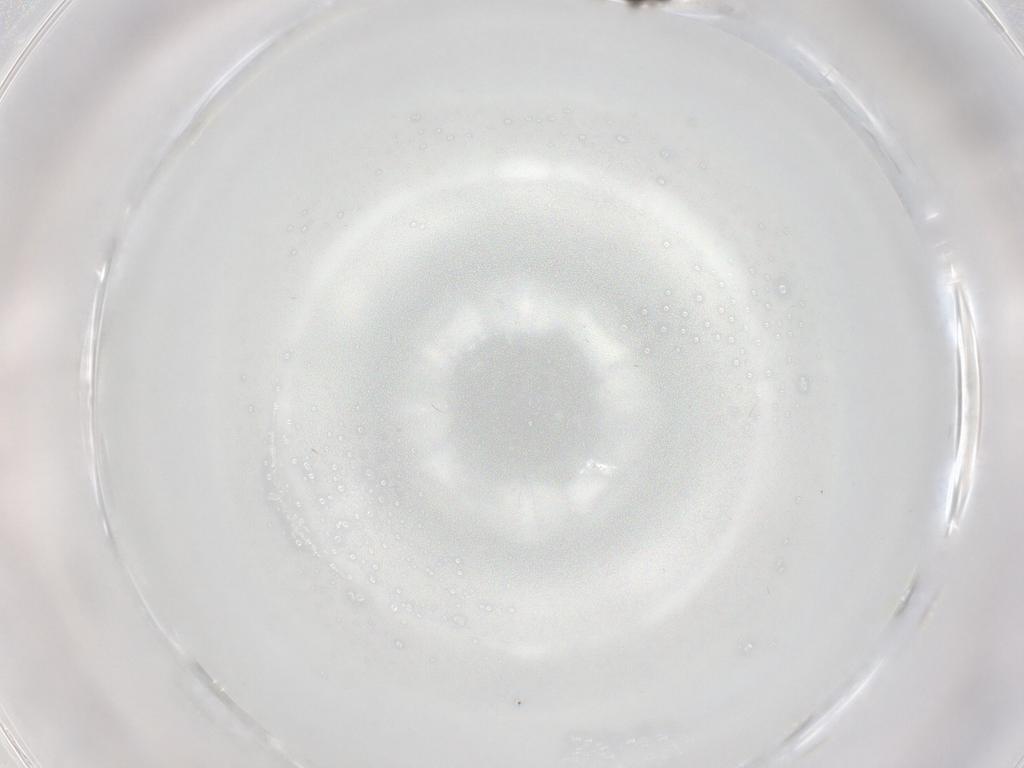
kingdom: Animalia
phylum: Arthropoda
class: Insecta
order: Diptera
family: Cecidomyiidae
